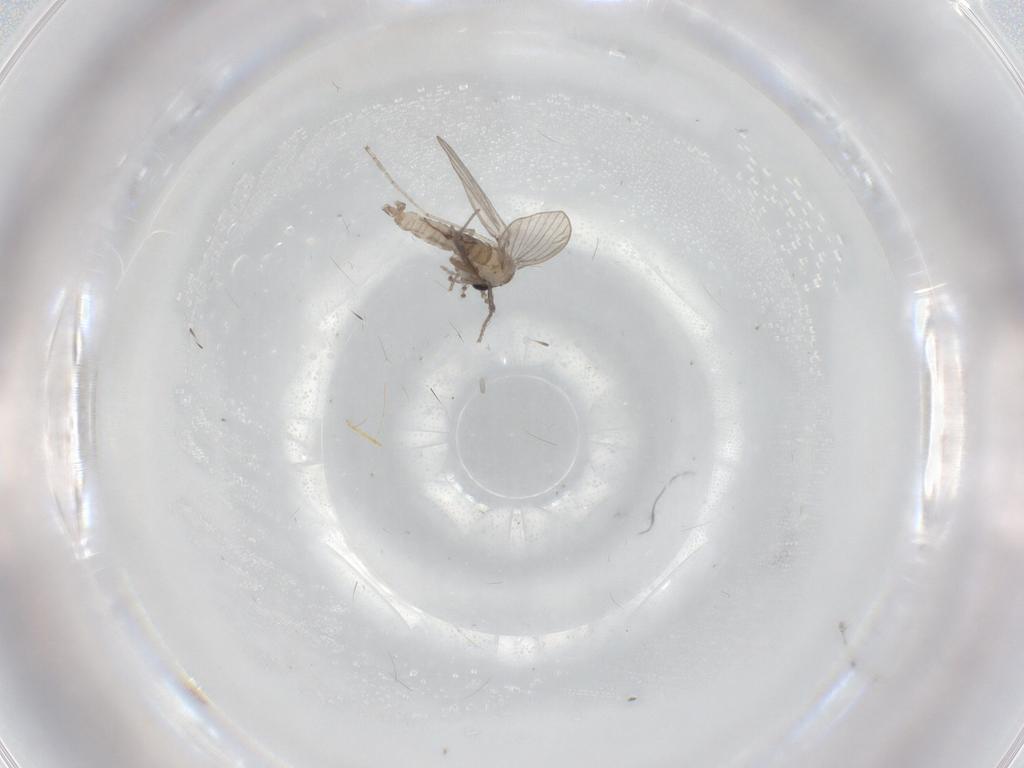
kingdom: Animalia
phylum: Arthropoda
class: Insecta
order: Diptera
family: Psychodidae
